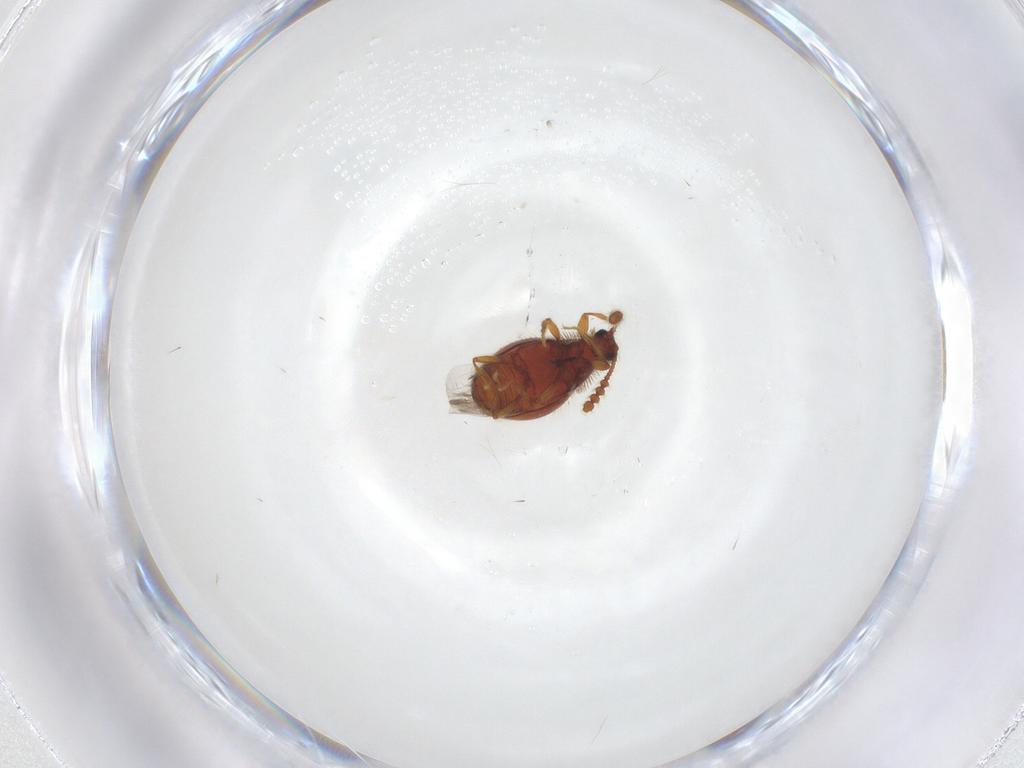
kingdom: Animalia
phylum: Arthropoda
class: Insecta
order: Coleoptera
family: Staphylinidae
